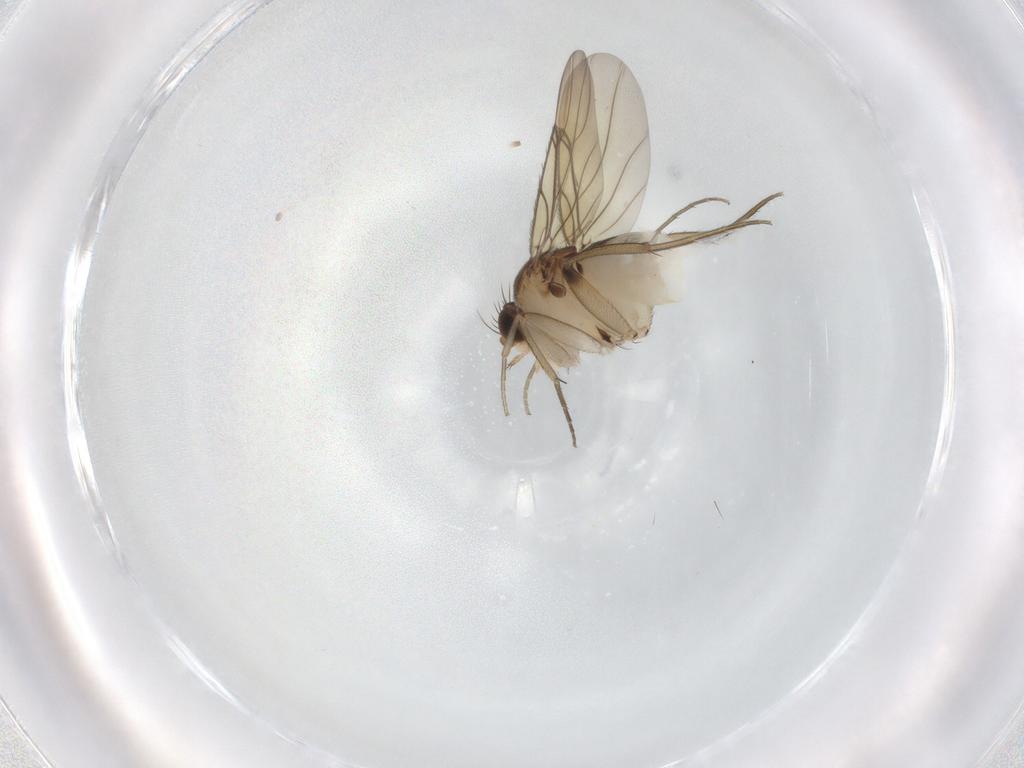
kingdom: Animalia
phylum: Arthropoda
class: Insecta
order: Diptera
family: Phoridae
